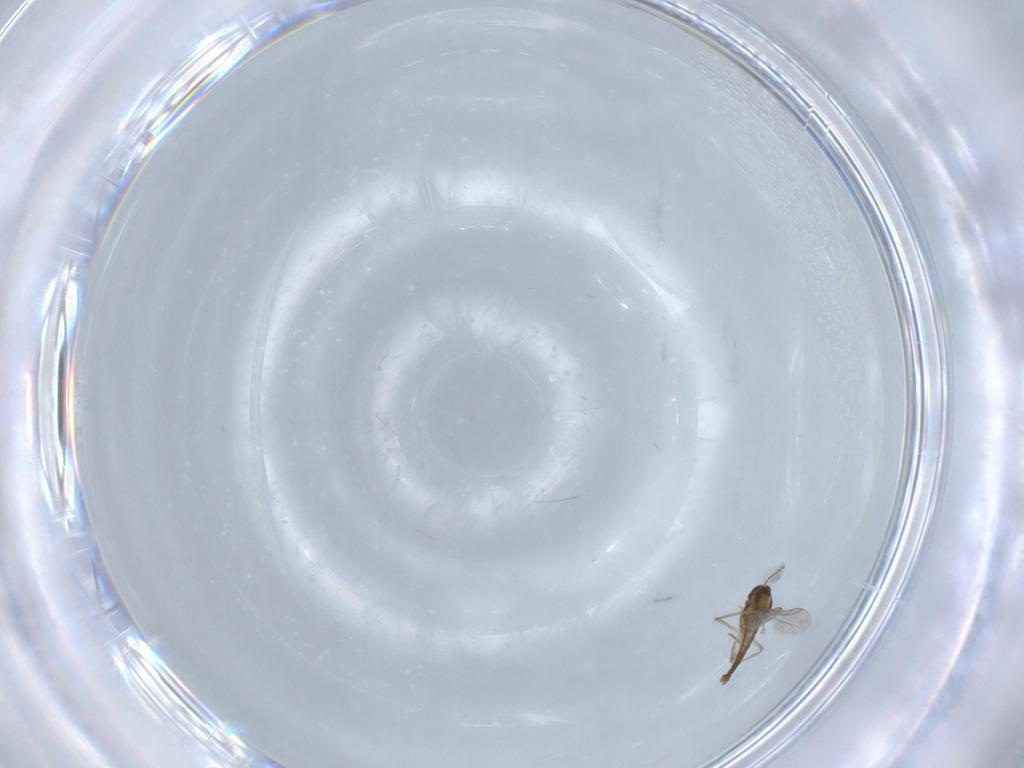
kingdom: Animalia
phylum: Arthropoda
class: Insecta
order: Diptera
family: Chironomidae
